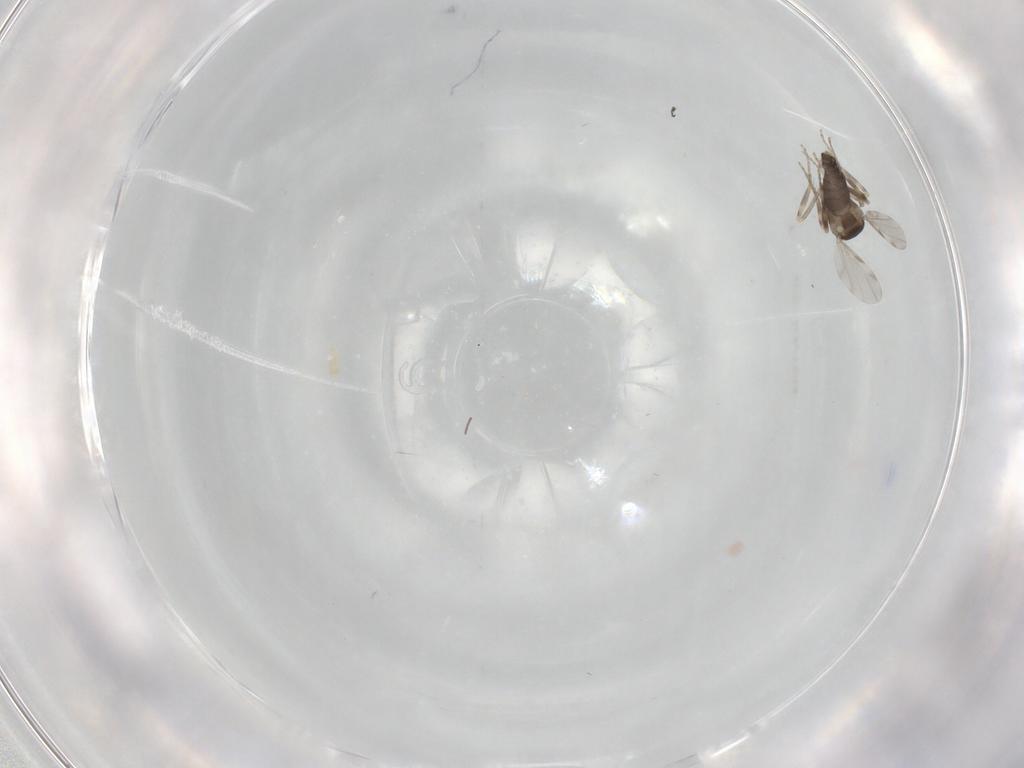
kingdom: Animalia
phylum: Arthropoda
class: Insecta
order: Diptera
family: Ceratopogonidae
